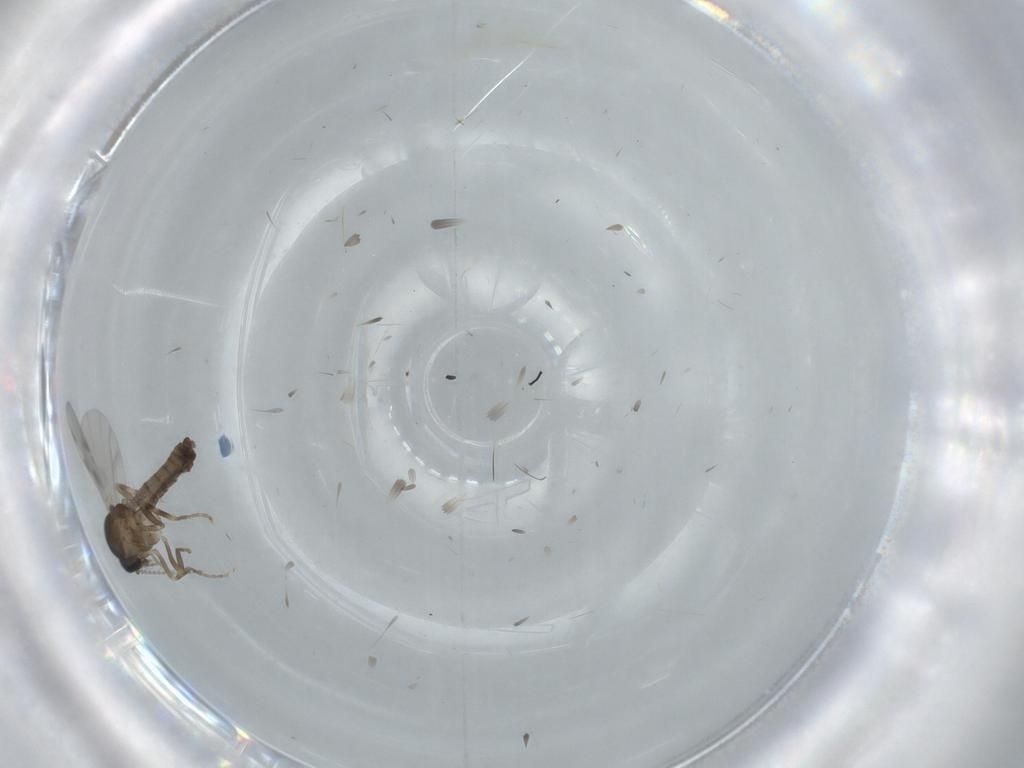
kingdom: Animalia
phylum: Arthropoda
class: Insecta
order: Diptera
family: Ceratopogonidae
